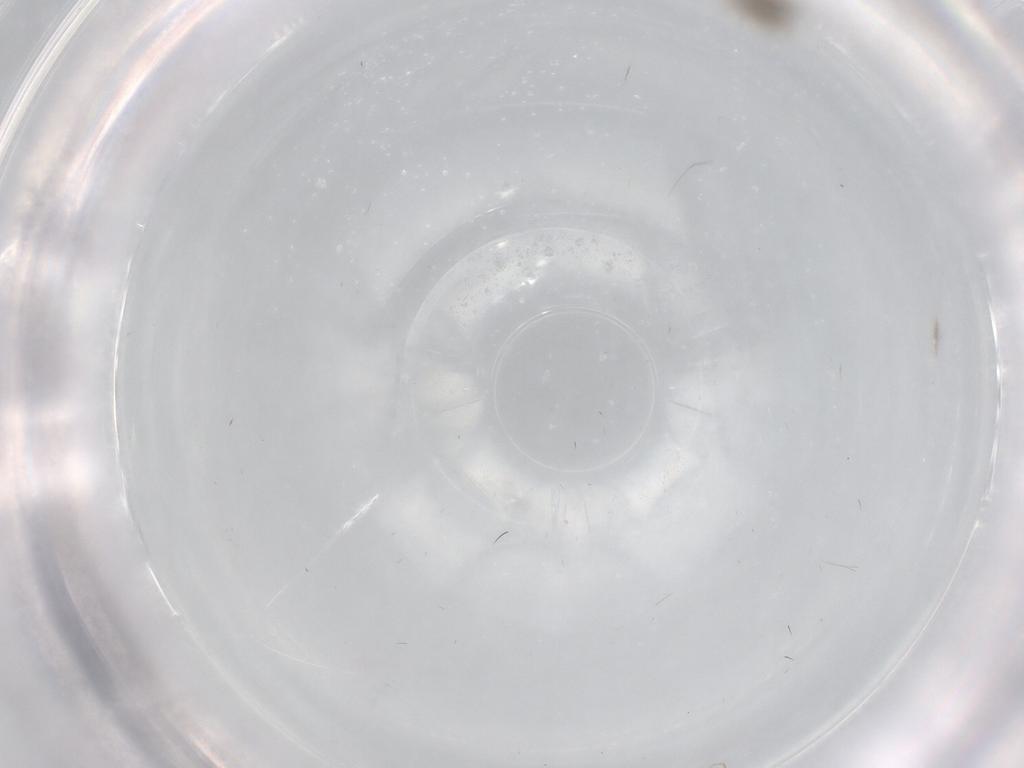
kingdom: Animalia
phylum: Arthropoda
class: Insecta
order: Diptera
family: Cecidomyiidae
